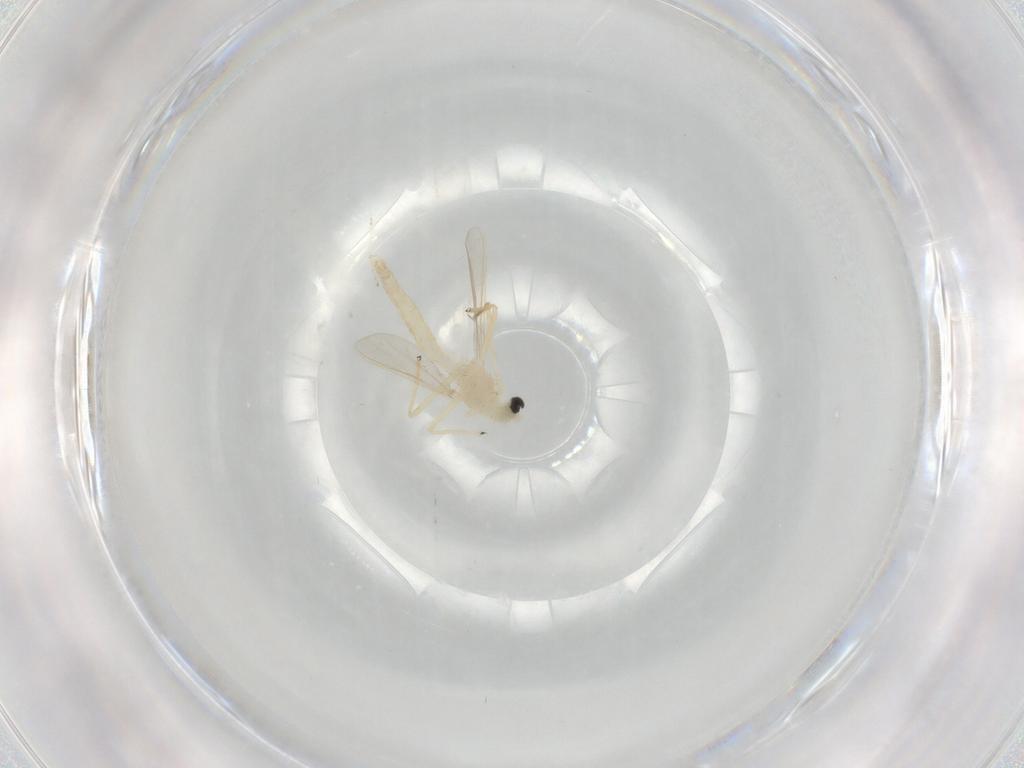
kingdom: Animalia
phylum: Arthropoda
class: Insecta
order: Diptera
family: Chironomidae
